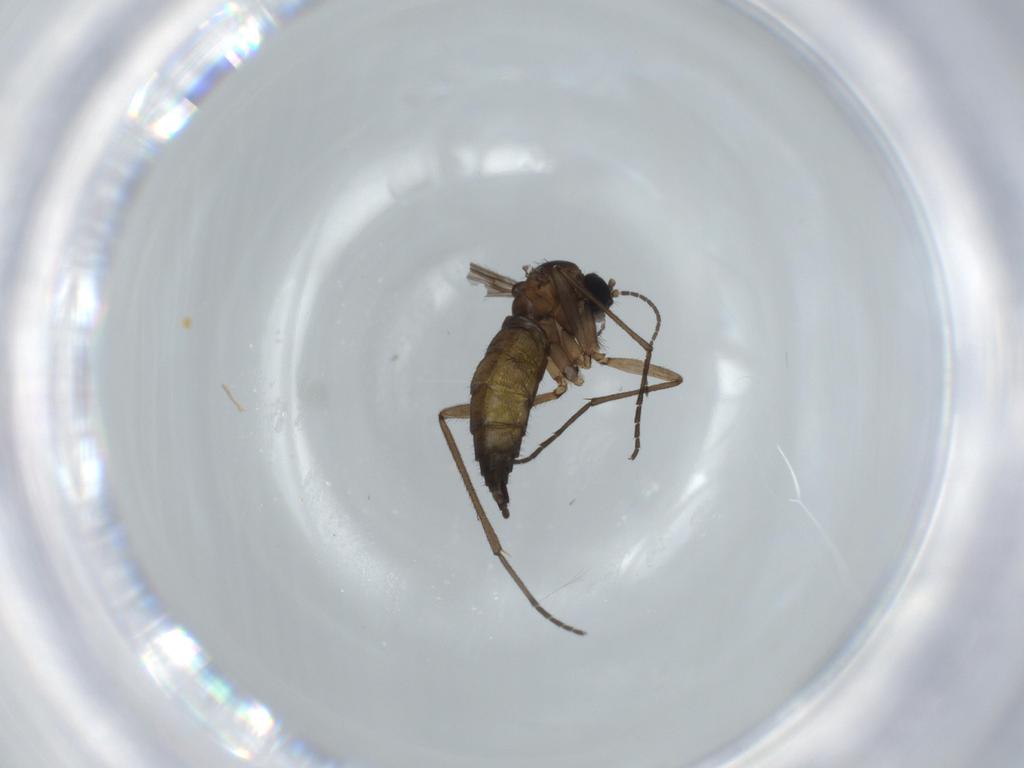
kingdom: Animalia
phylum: Arthropoda
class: Insecta
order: Diptera
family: Sciaridae
